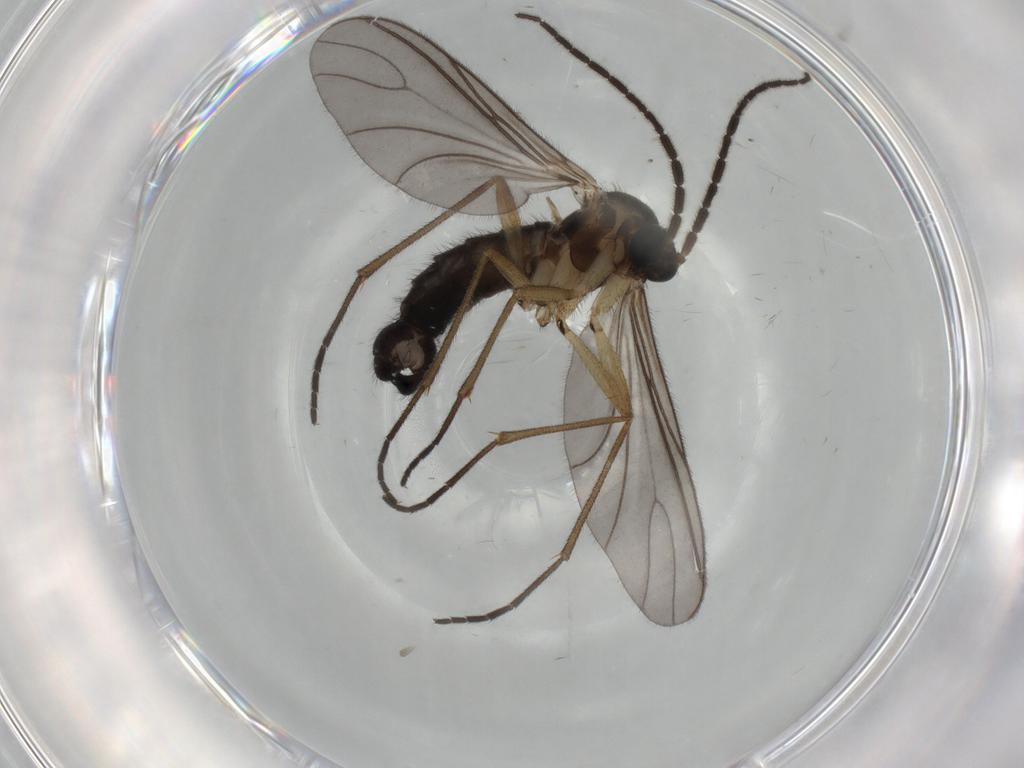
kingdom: Animalia
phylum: Arthropoda
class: Insecta
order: Diptera
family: Sciaridae
